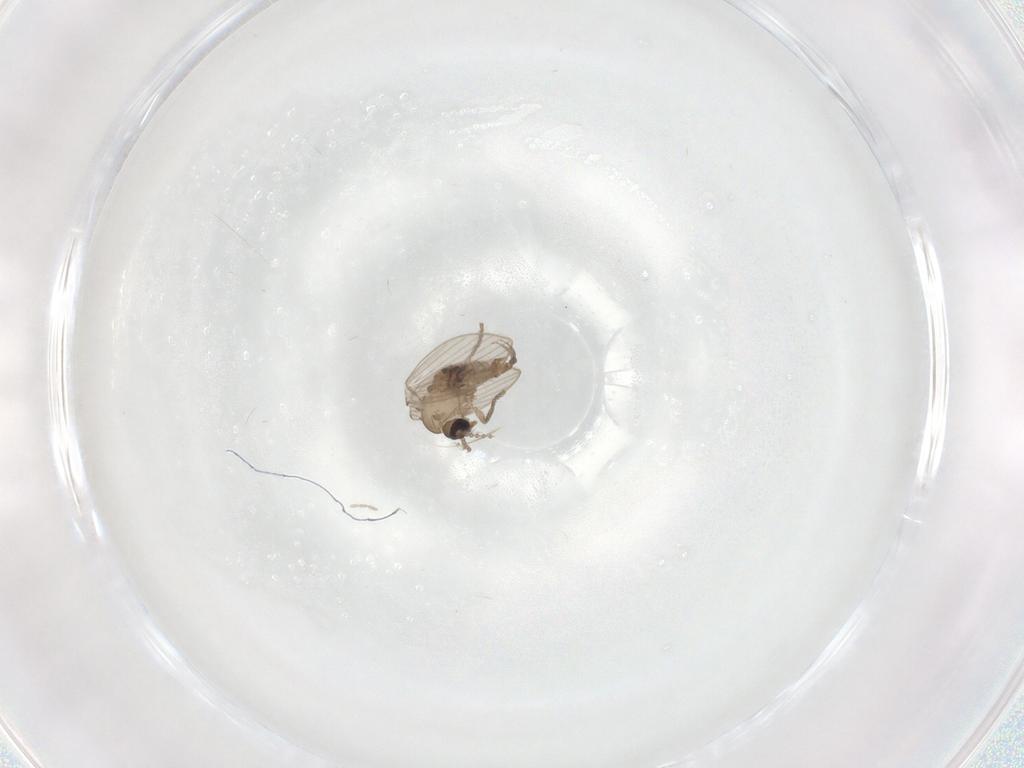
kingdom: Animalia
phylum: Arthropoda
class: Insecta
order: Diptera
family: Psychodidae
